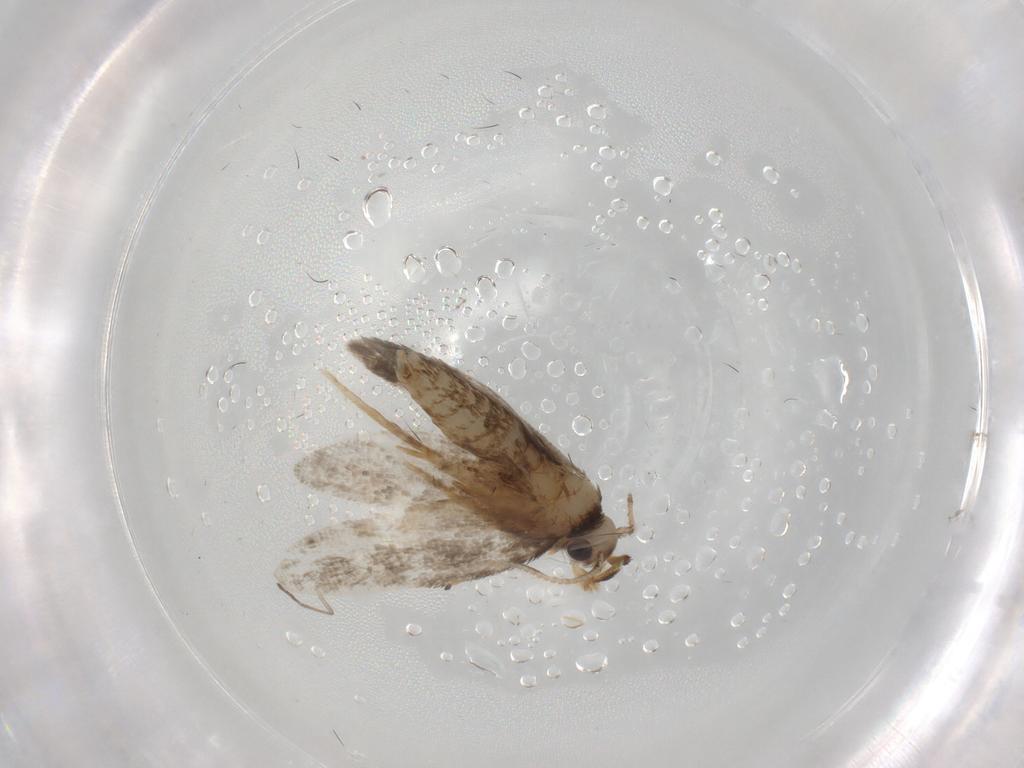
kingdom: Animalia
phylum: Arthropoda
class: Insecta
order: Lepidoptera
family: Psychidae
